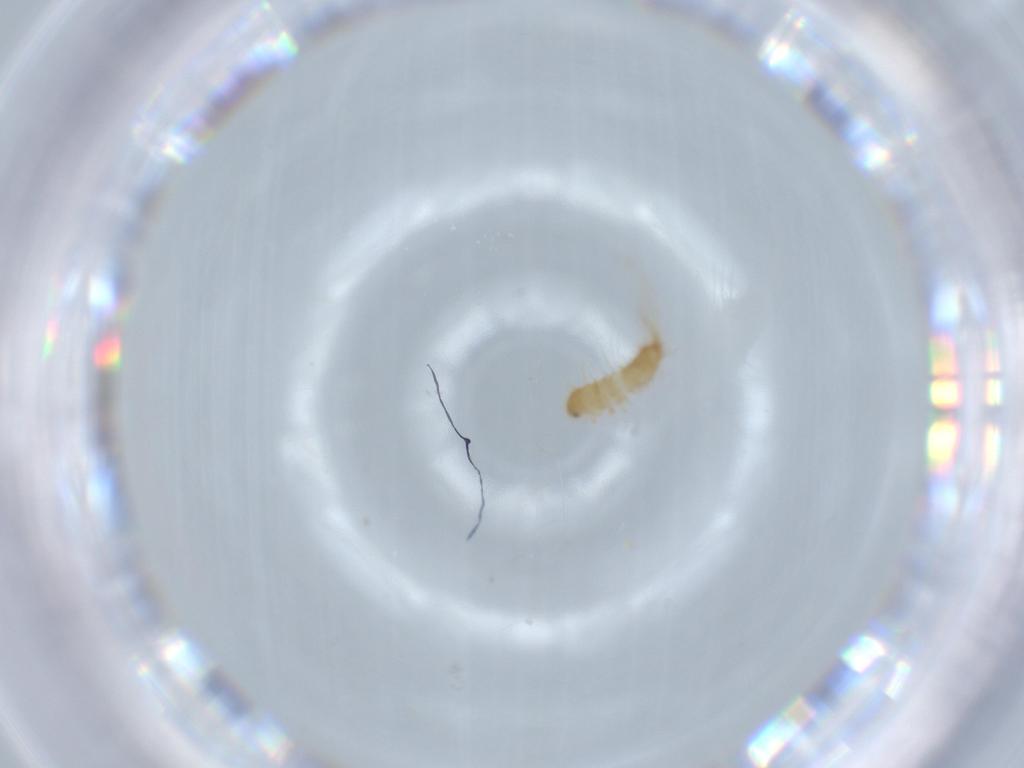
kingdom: Animalia
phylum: Arthropoda
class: Insecta
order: Coleoptera
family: Dermestidae
